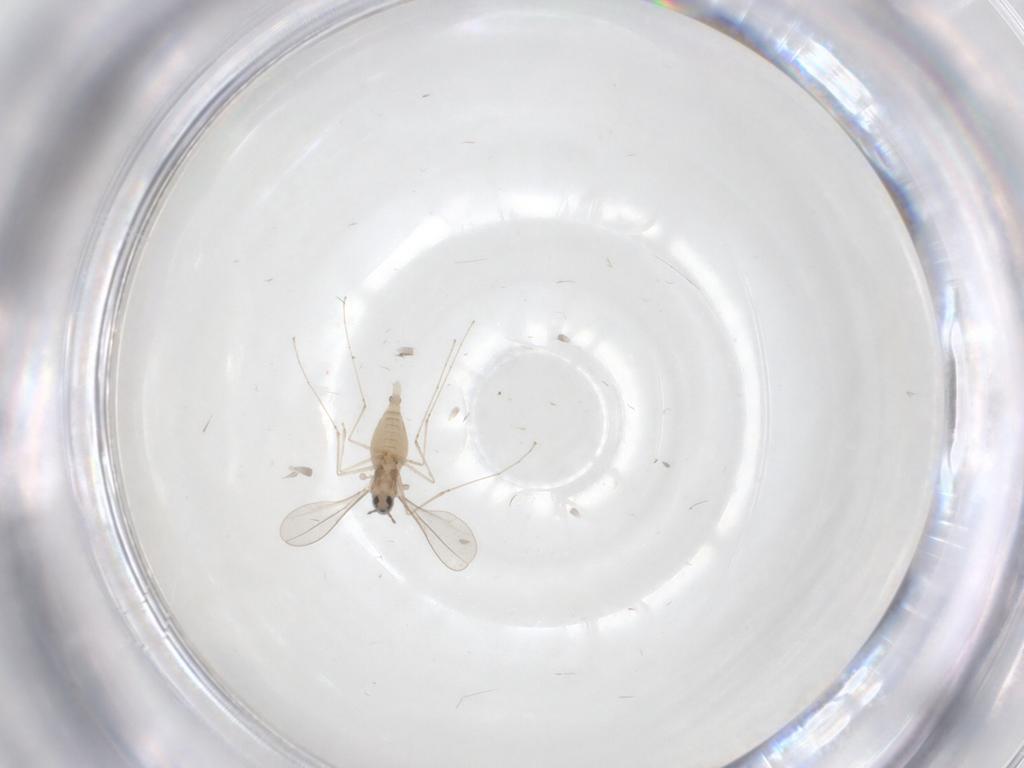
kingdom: Animalia
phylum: Arthropoda
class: Insecta
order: Diptera
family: Cecidomyiidae
